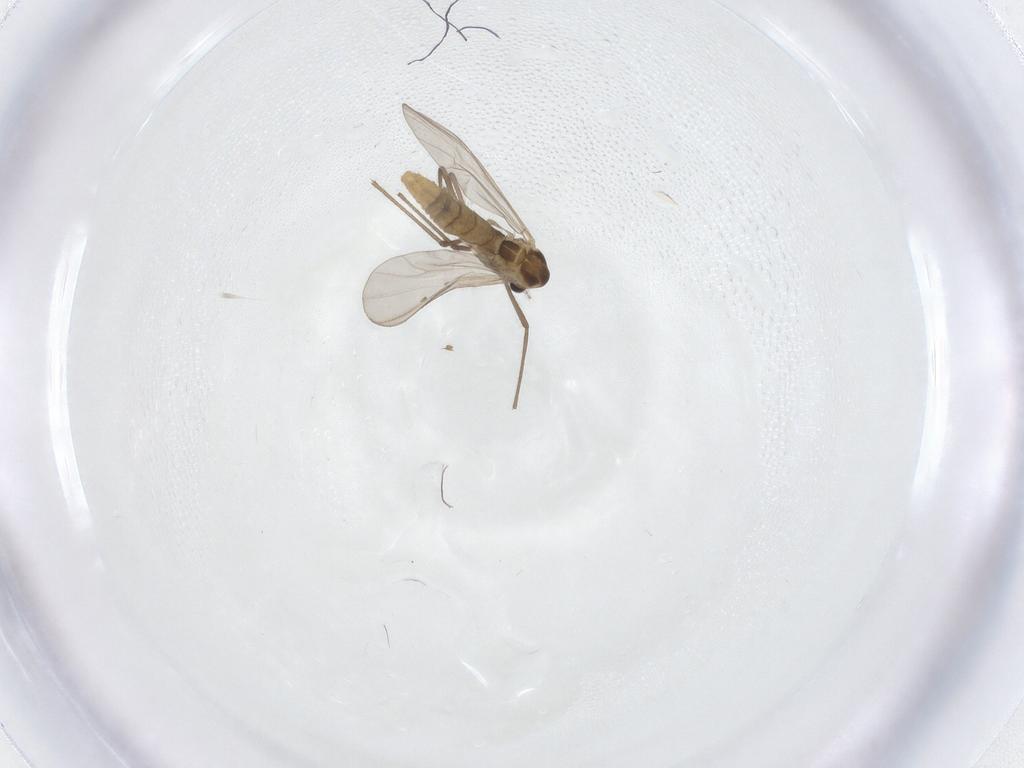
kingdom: Animalia
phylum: Arthropoda
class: Insecta
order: Diptera
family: Chironomidae
